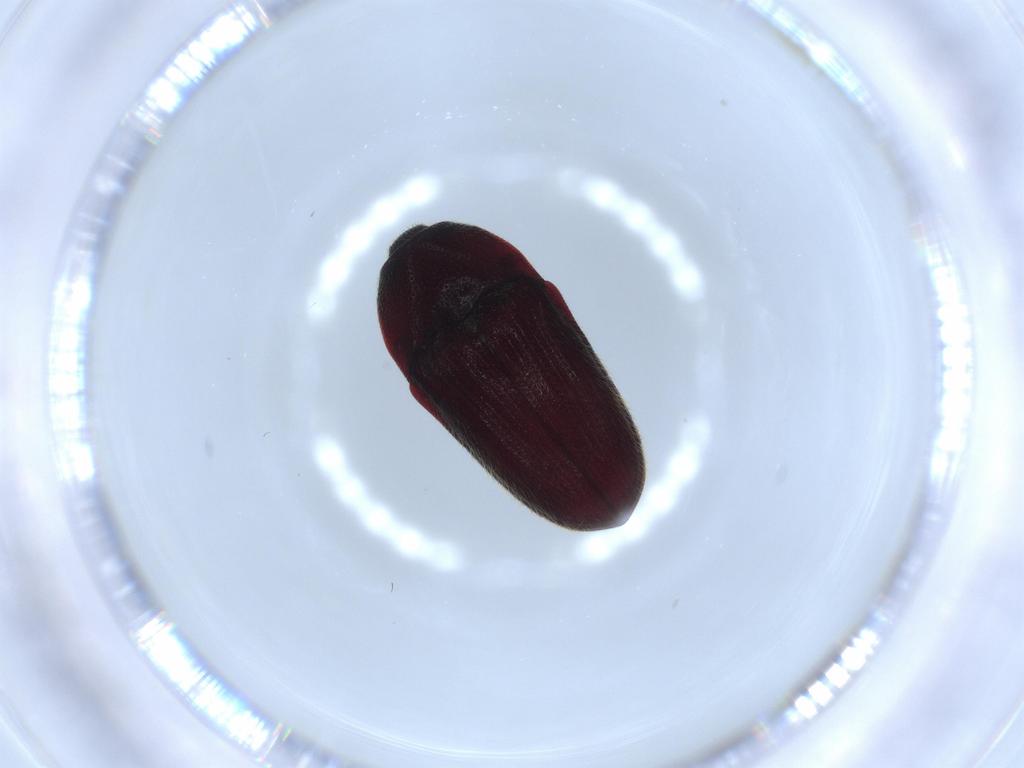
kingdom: Animalia
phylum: Arthropoda
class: Insecta
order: Coleoptera
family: Throscidae
